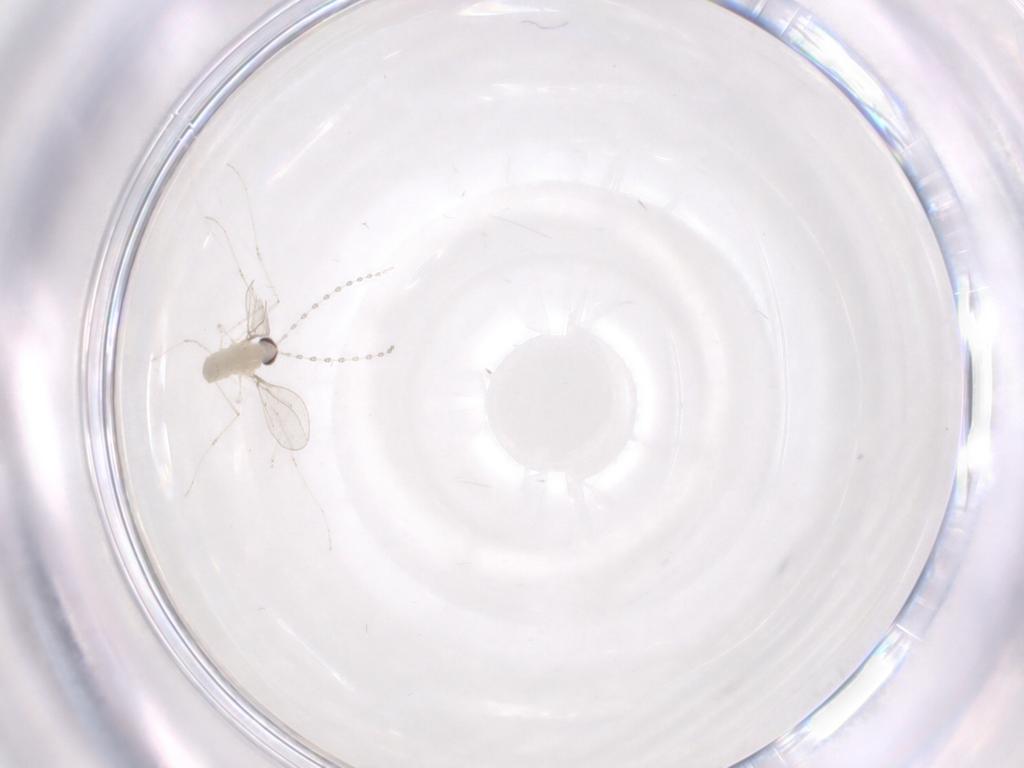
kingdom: Animalia
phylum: Arthropoda
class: Insecta
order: Diptera
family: Cecidomyiidae
